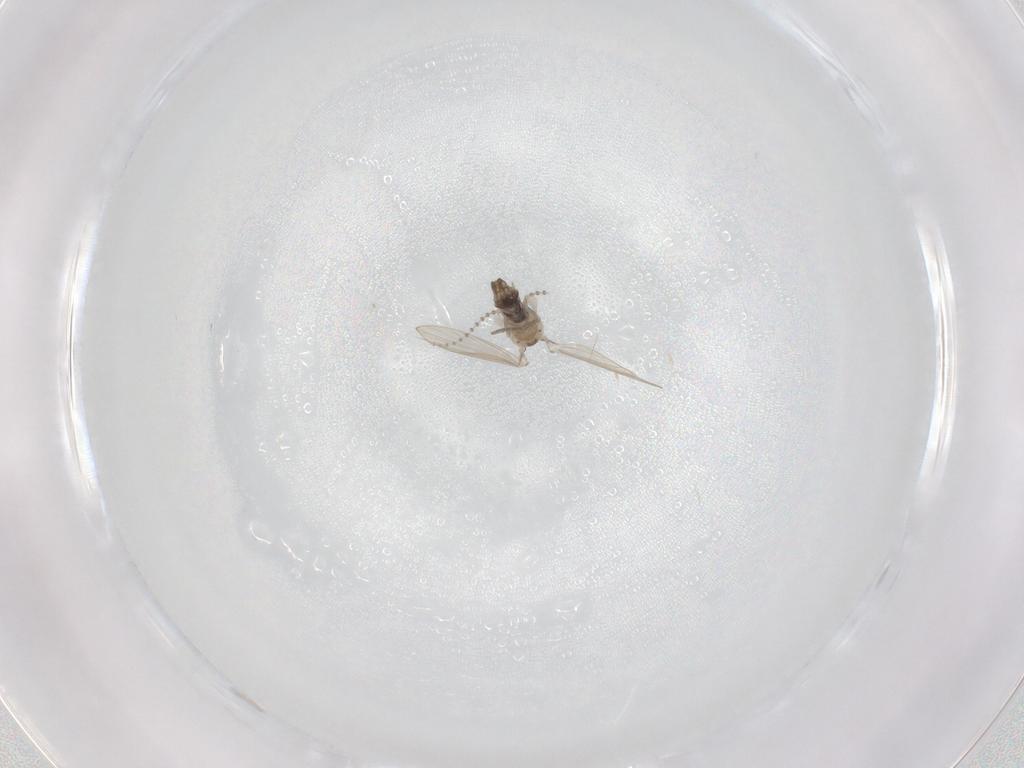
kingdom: Animalia
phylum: Arthropoda
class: Insecta
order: Diptera
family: Psychodidae
